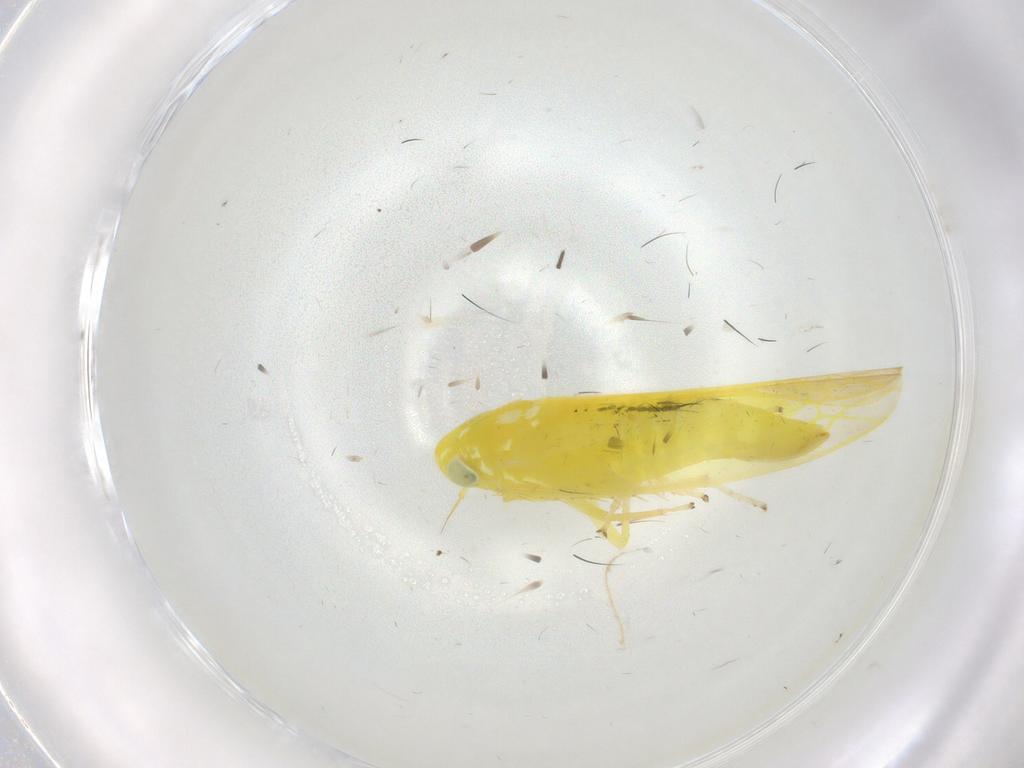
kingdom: Animalia
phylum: Arthropoda
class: Insecta
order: Hemiptera
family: Cicadellidae
